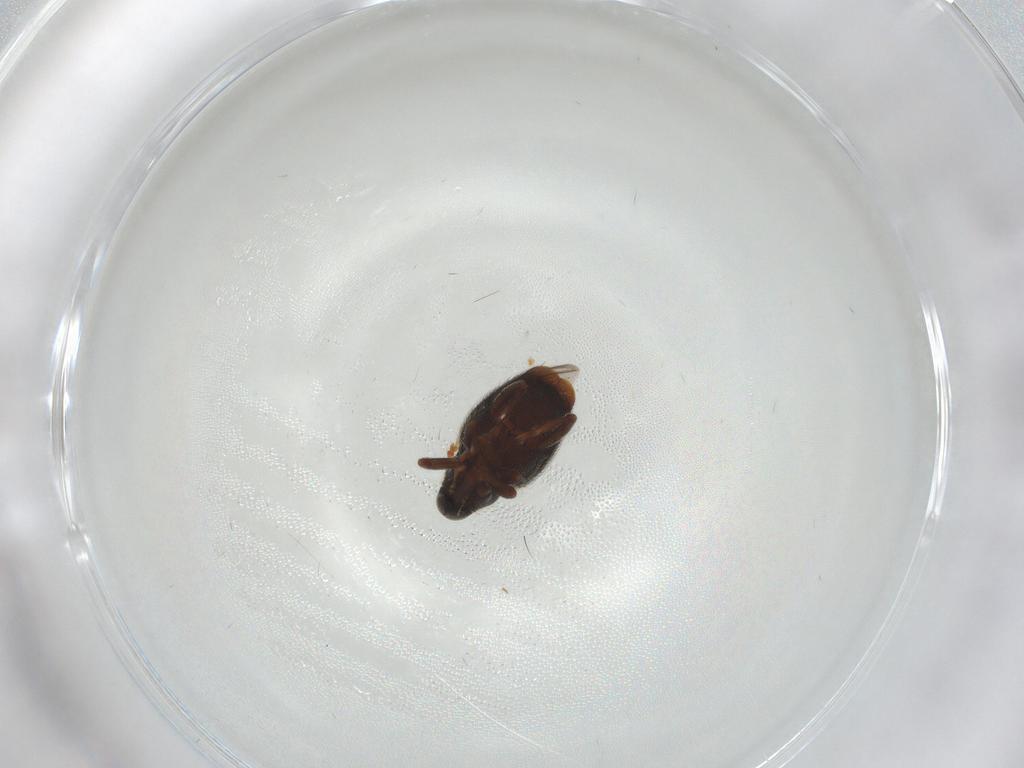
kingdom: Animalia
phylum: Arthropoda
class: Insecta
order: Coleoptera
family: Curculionidae
